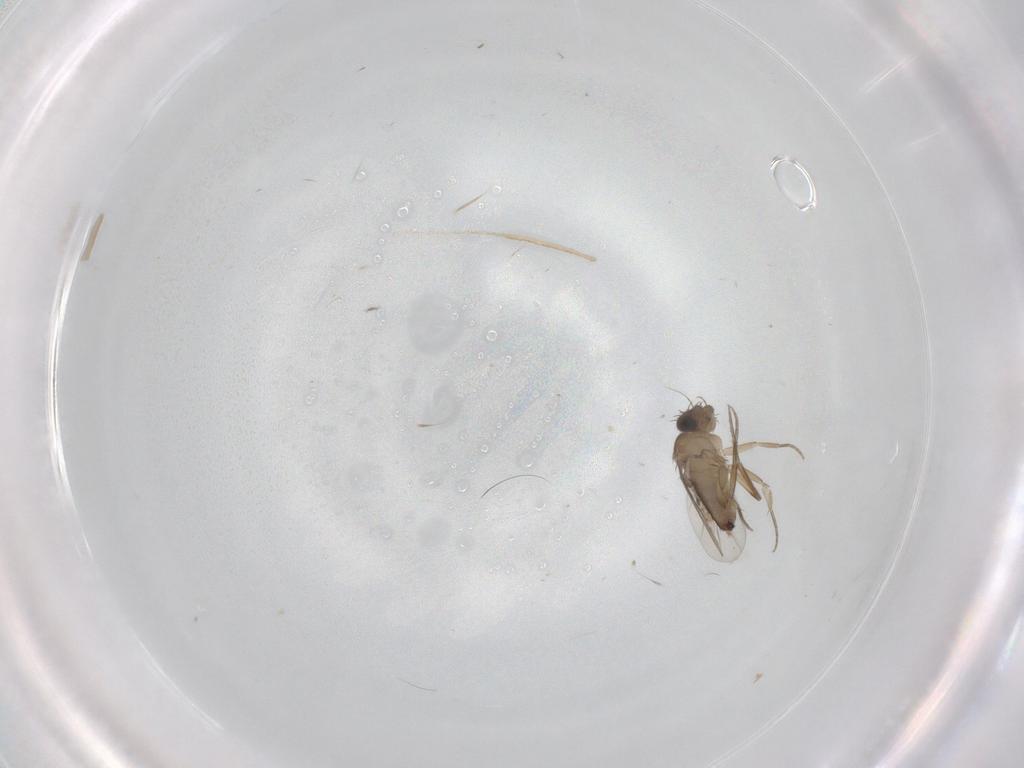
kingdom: Animalia
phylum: Arthropoda
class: Insecta
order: Diptera
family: Phoridae
